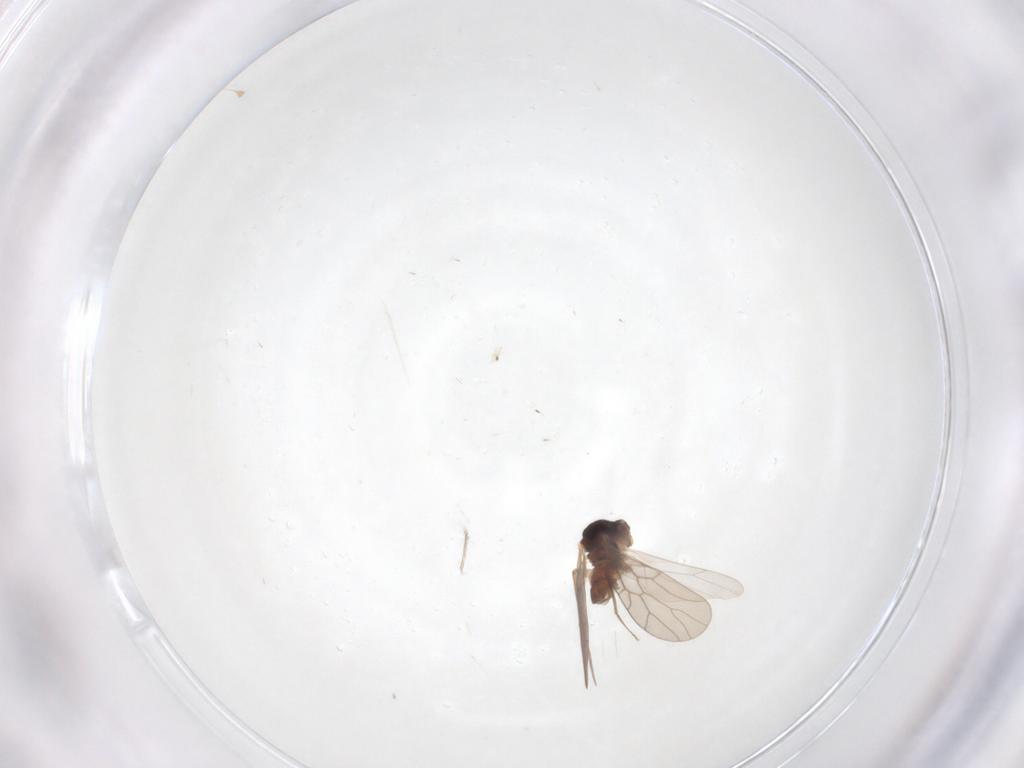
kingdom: Animalia
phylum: Arthropoda
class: Insecta
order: Psocodea
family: Lepidopsocidae
